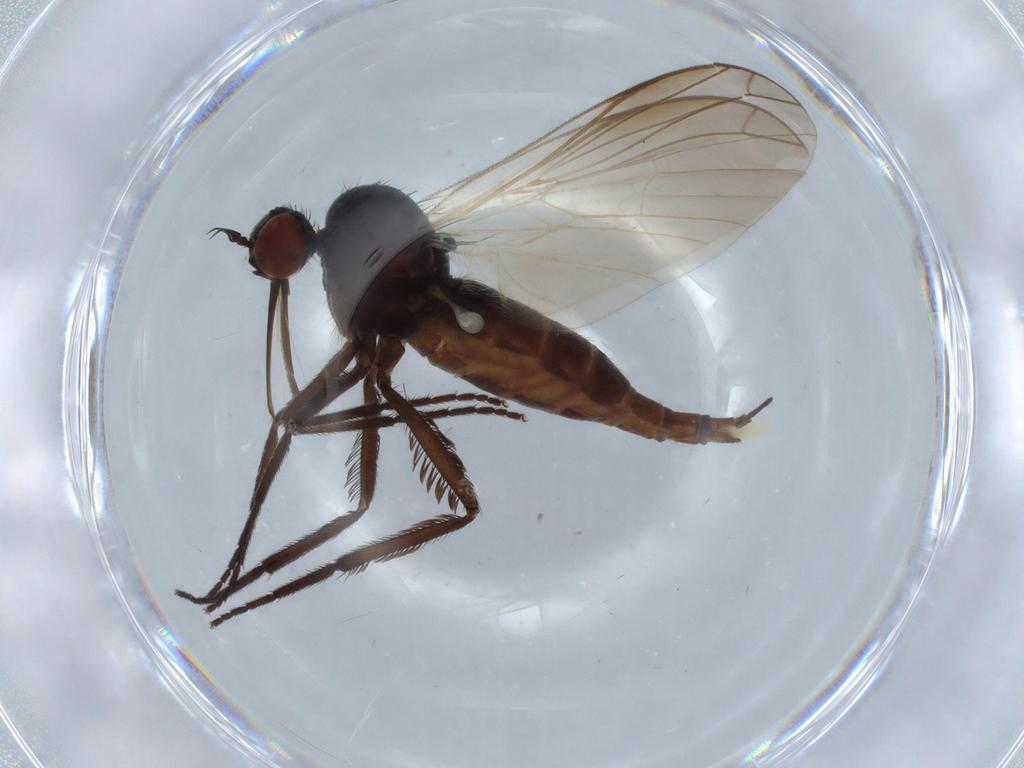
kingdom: Animalia
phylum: Arthropoda
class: Insecta
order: Diptera
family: Empididae
